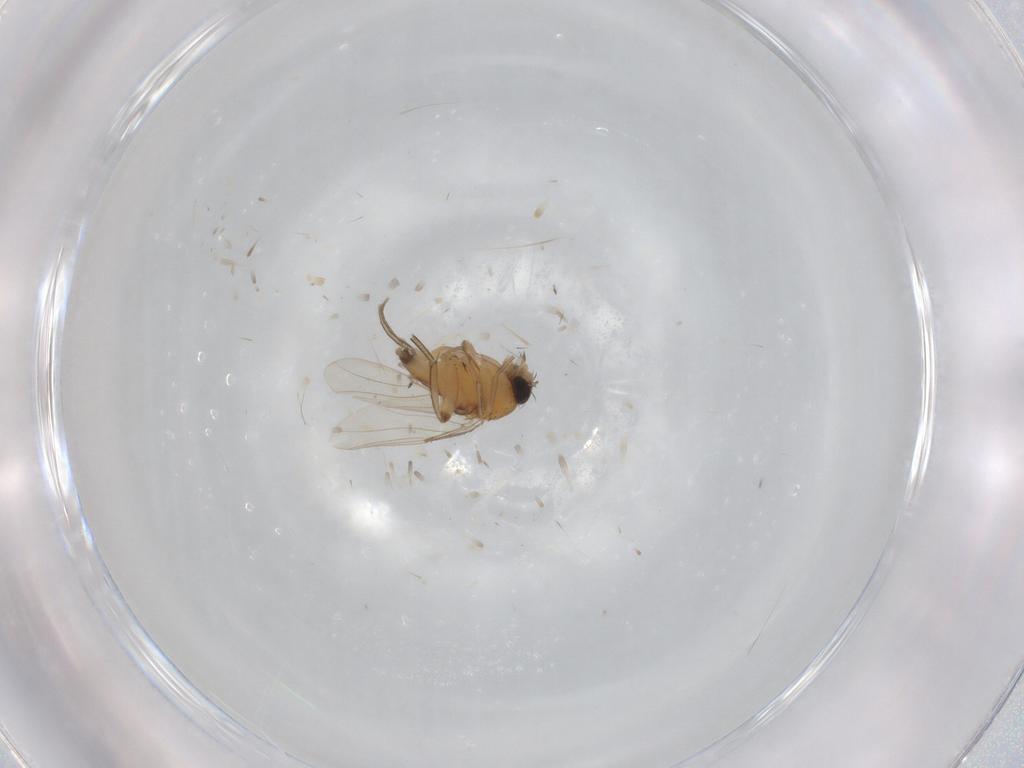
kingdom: Animalia
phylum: Arthropoda
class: Insecta
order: Diptera
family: Phoridae
